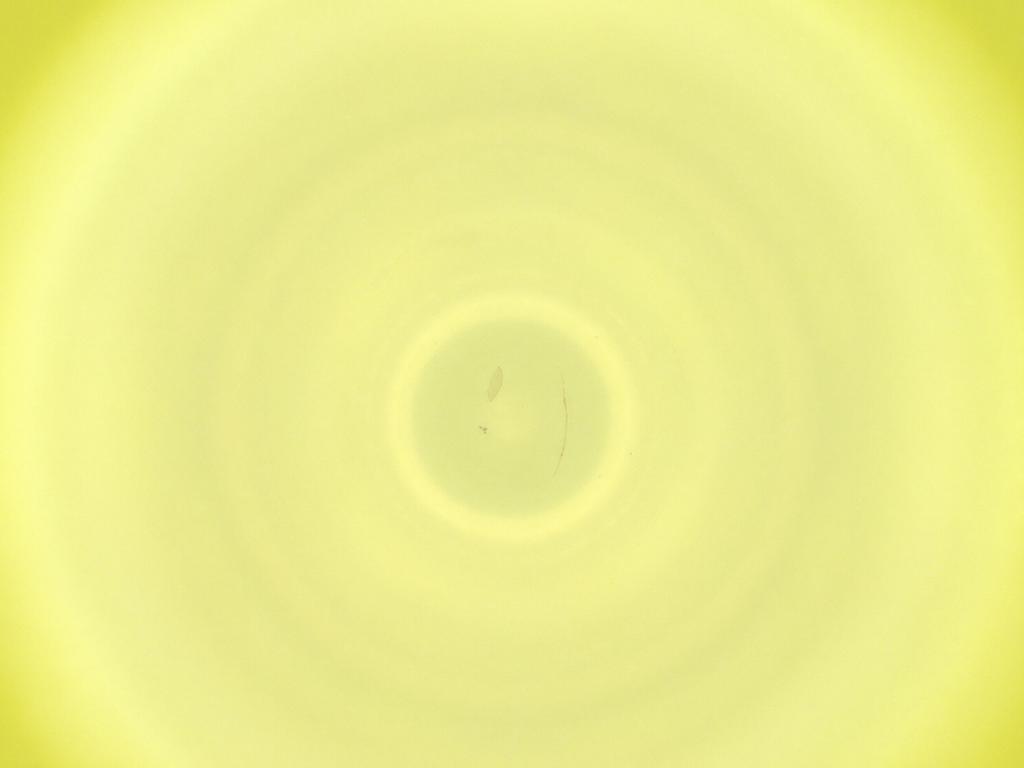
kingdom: Animalia
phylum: Arthropoda
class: Insecta
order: Diptera
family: Cecidomyiidae
